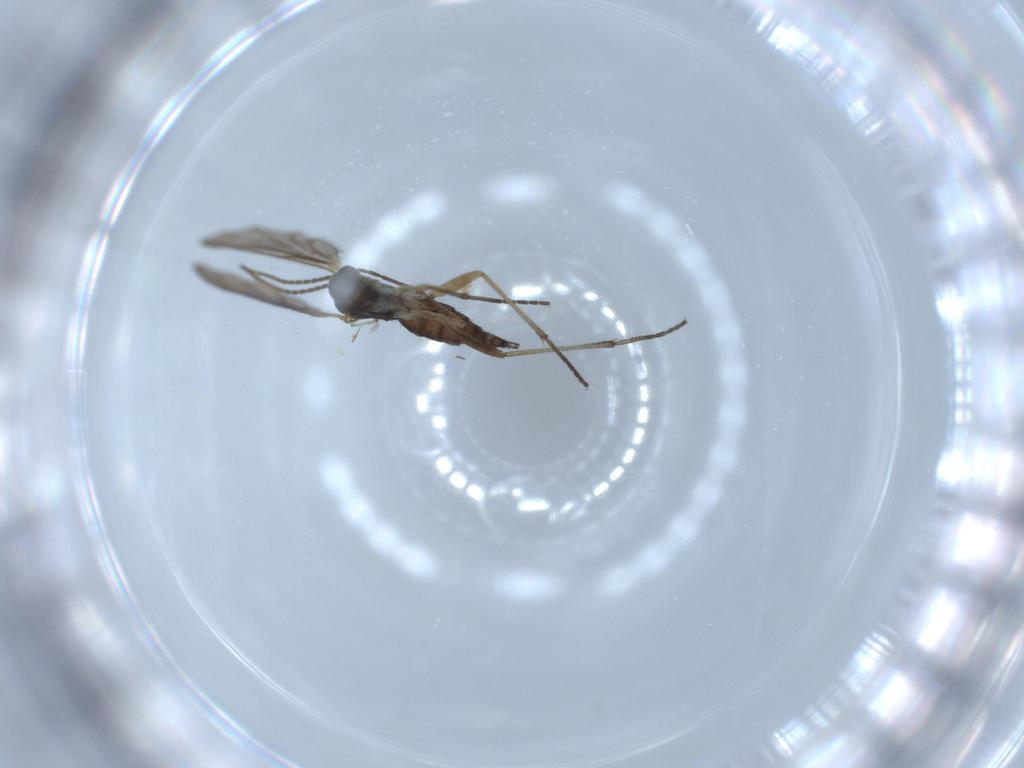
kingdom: Animalia
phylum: Arthropoda
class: Insecta
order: Diptera
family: Sciaridae
